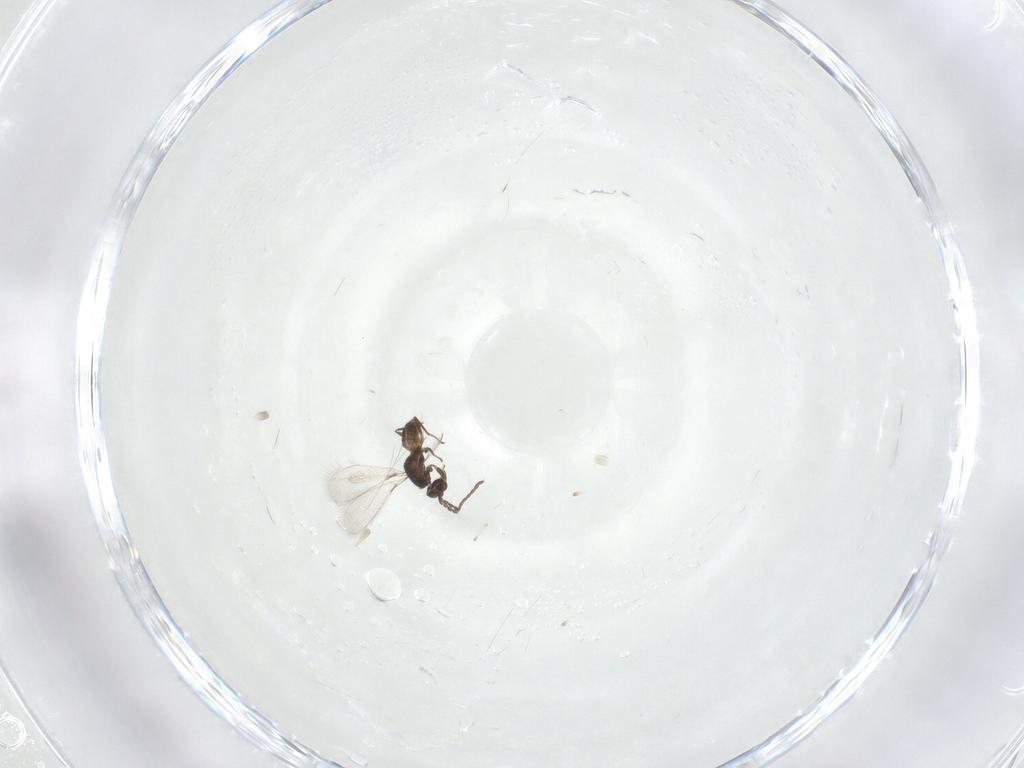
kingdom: Animalia
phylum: Arthropoda
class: Insecta
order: Hymenoptera
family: Mymaridae
